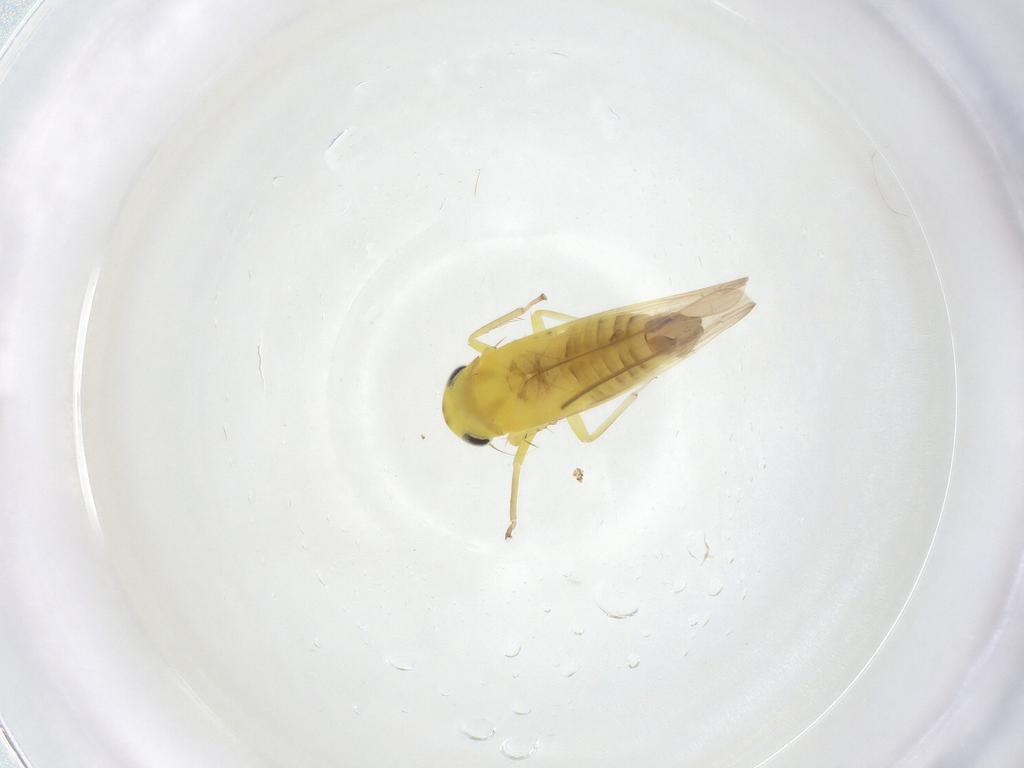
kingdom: Animalia
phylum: Arthropoda
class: Insecta
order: Hemiptera
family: Cicadellidae
